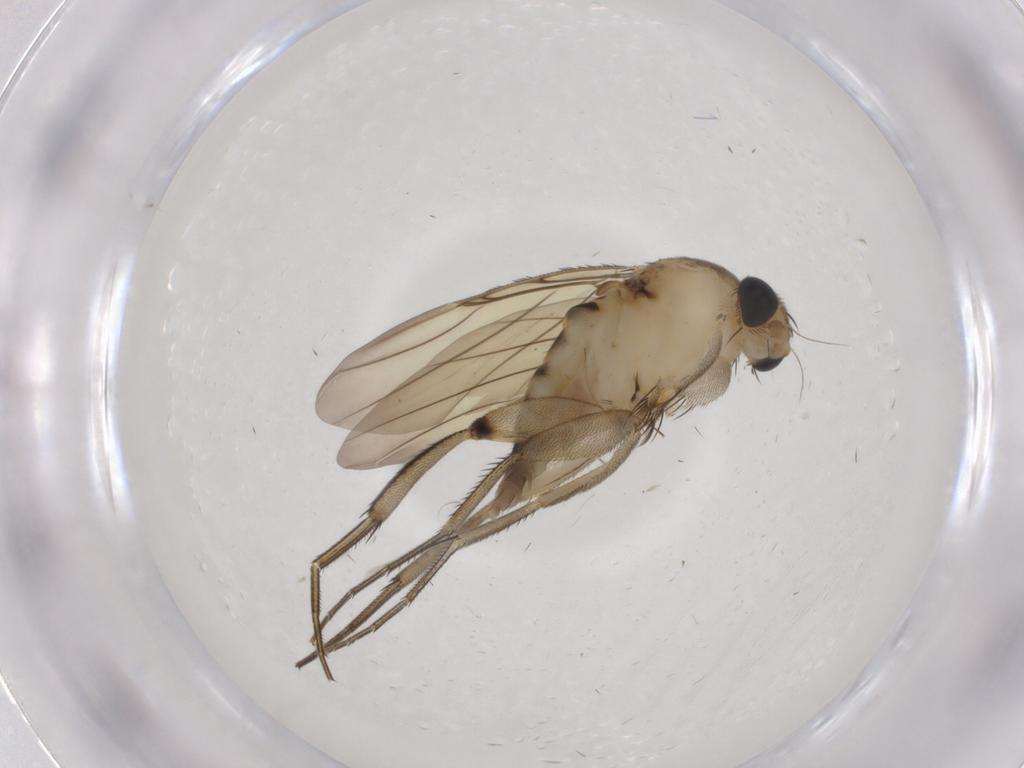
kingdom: Animalia
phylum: Arthropoda
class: Insecta
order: Diptera
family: Phoridae
